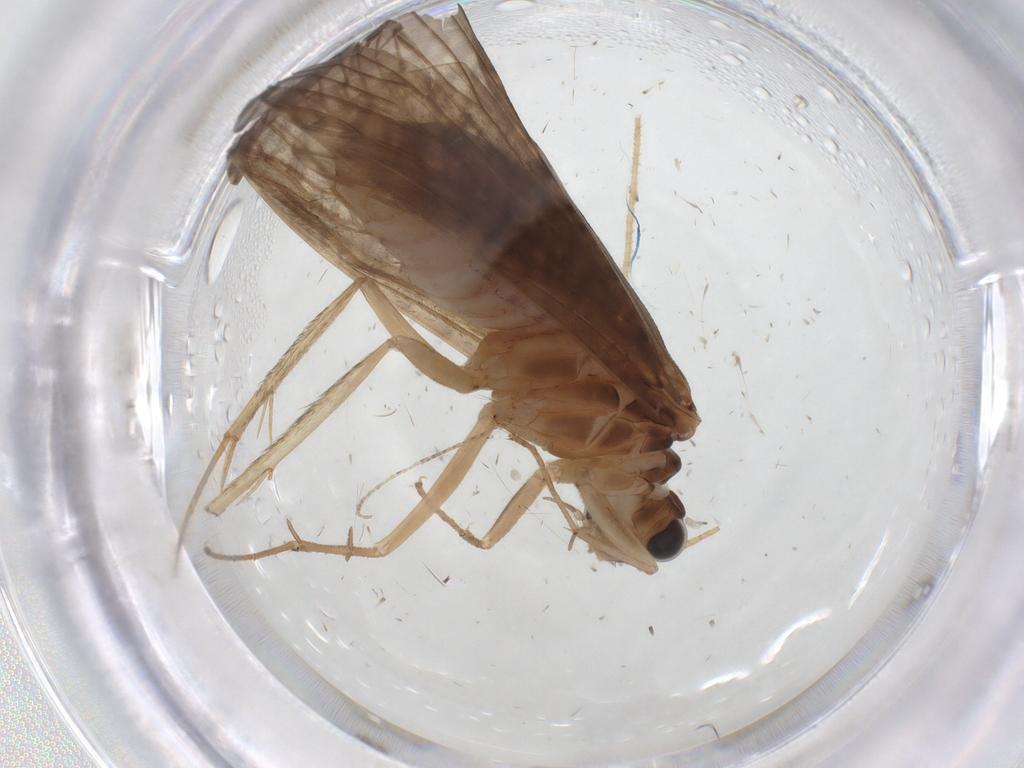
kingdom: Animalia
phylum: Arthropoda
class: Insecta
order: Trichoptera
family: Hydropsychidae
